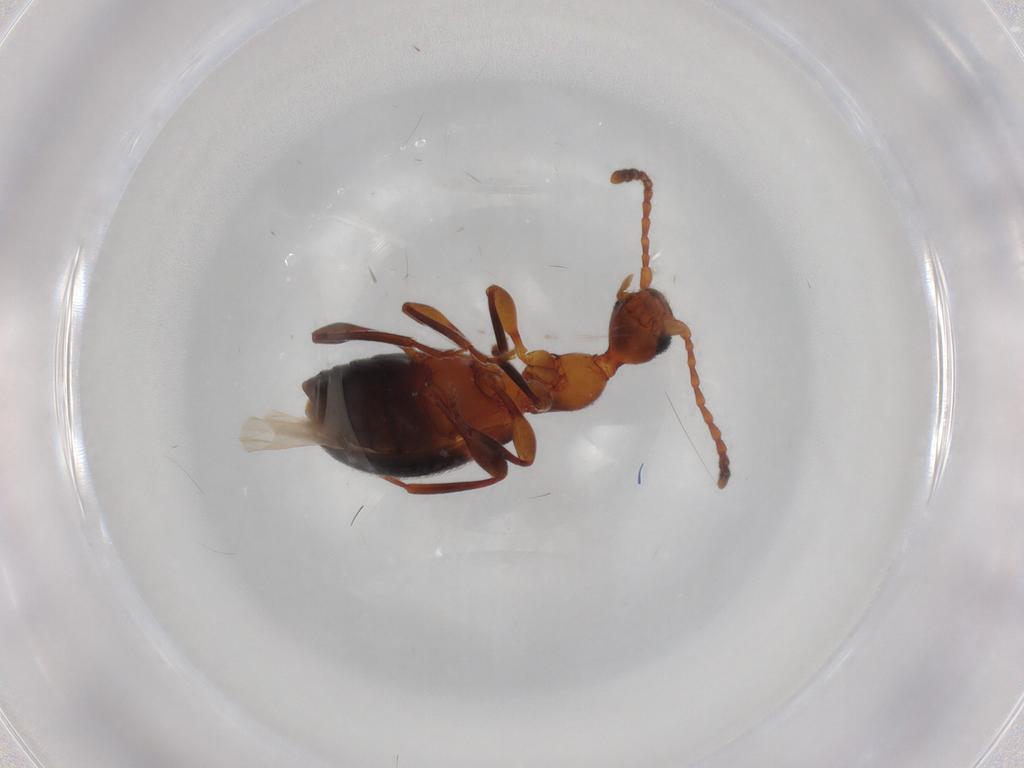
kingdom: Animalia
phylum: Arthropoda
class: Insecta
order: Coleoptera
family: Anthicidae
